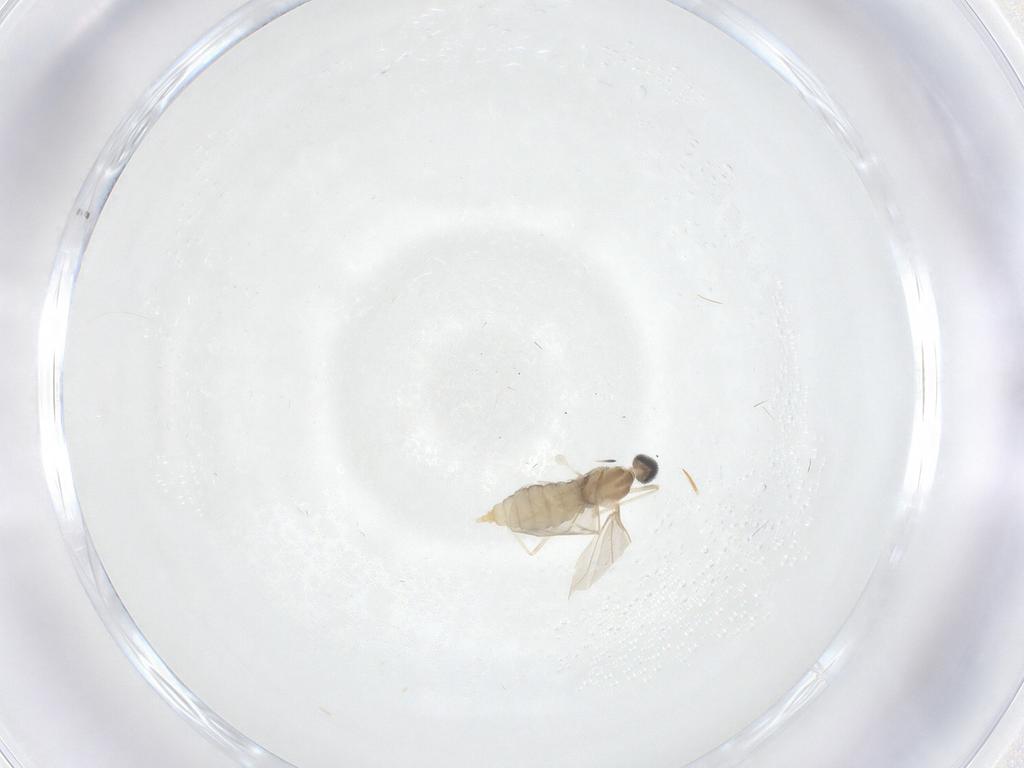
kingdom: Animalia
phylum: Arthropoda
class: Insecta
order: Diptera
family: Cecidomyiidae
